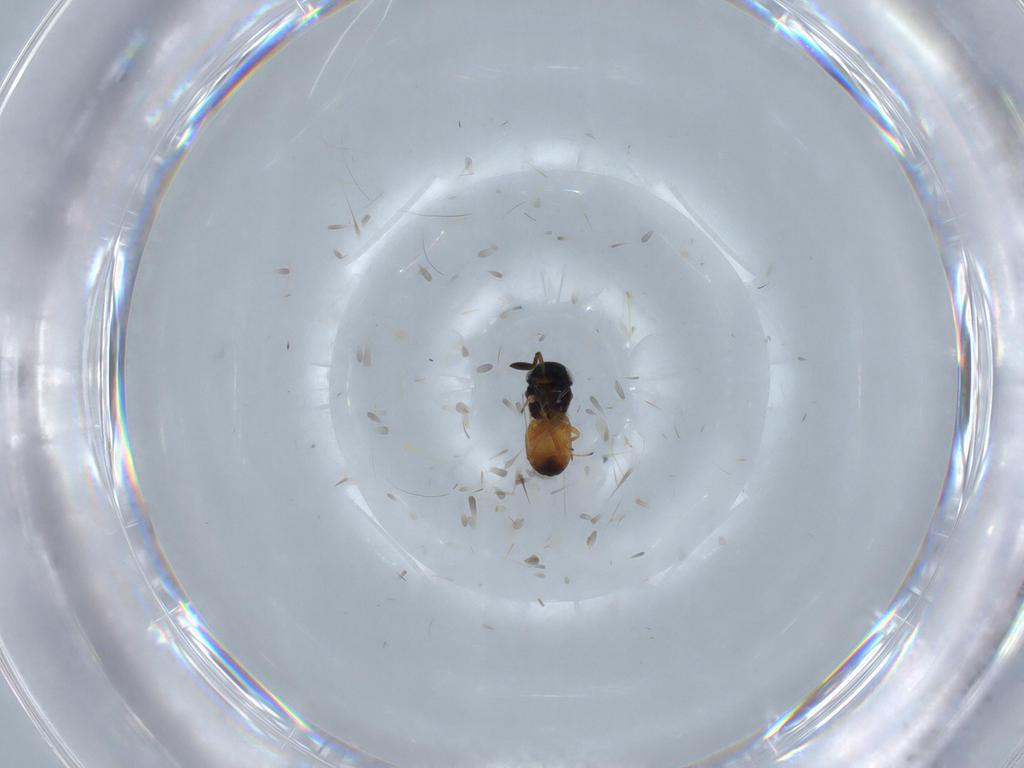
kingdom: Animalia
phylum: Arthropoda
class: Insecta
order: Hymenoptera
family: Scelionidae
